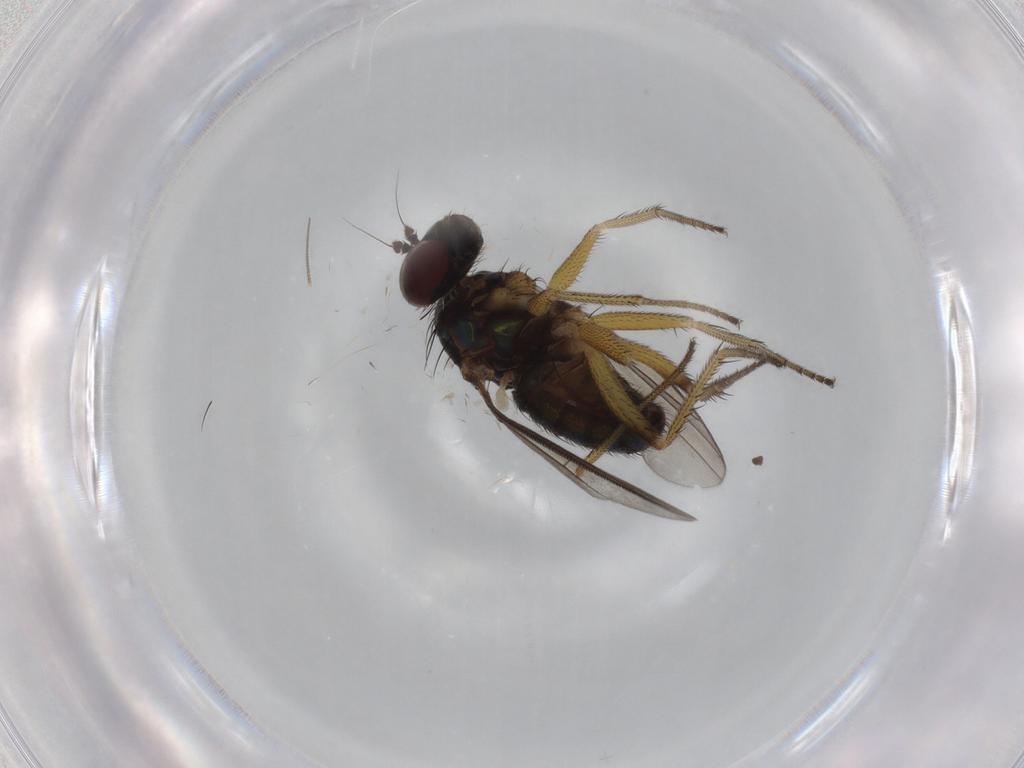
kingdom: Animalia
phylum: Arthropoda
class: Insecta
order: Diptera
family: Dolichopodidae
